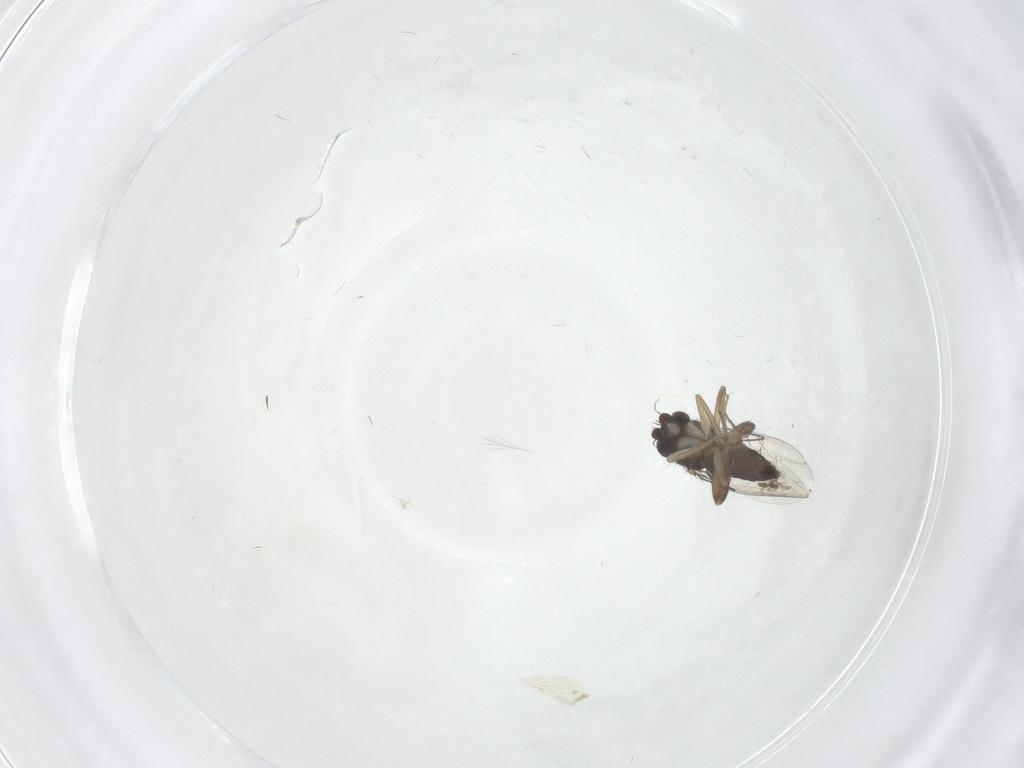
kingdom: Animalia
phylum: Arthropoda
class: Insecta
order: Diptera
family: Phoridae
